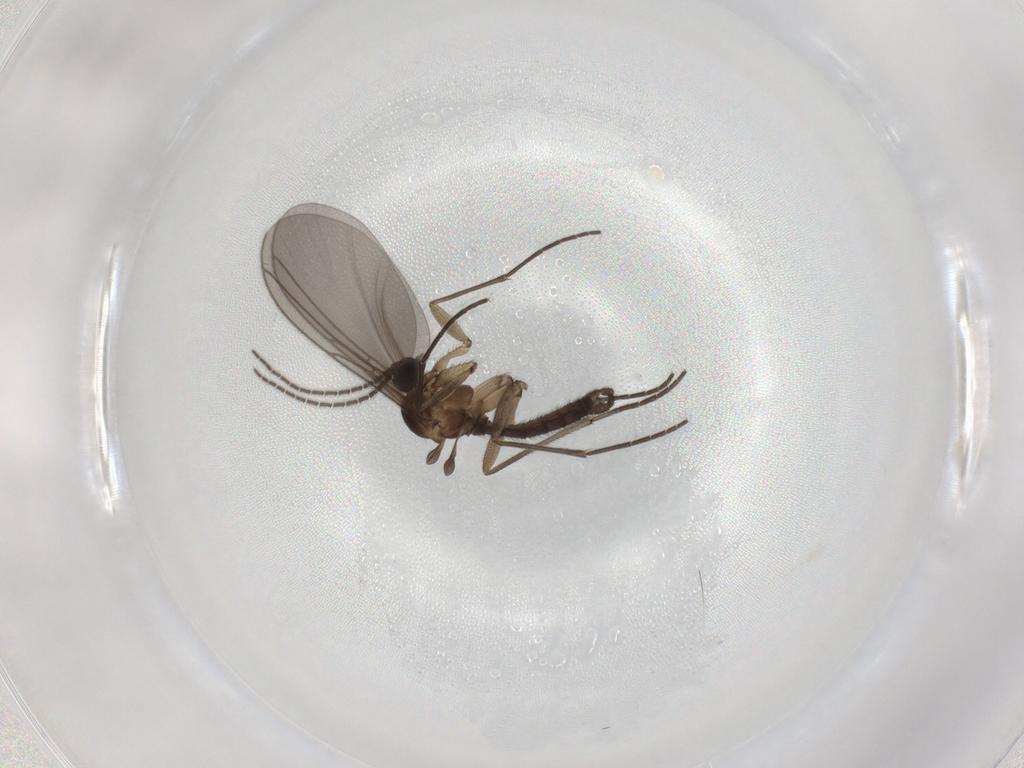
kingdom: Animalia
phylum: Arthropoda
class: Insecta
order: Diptera
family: Sciaridae
